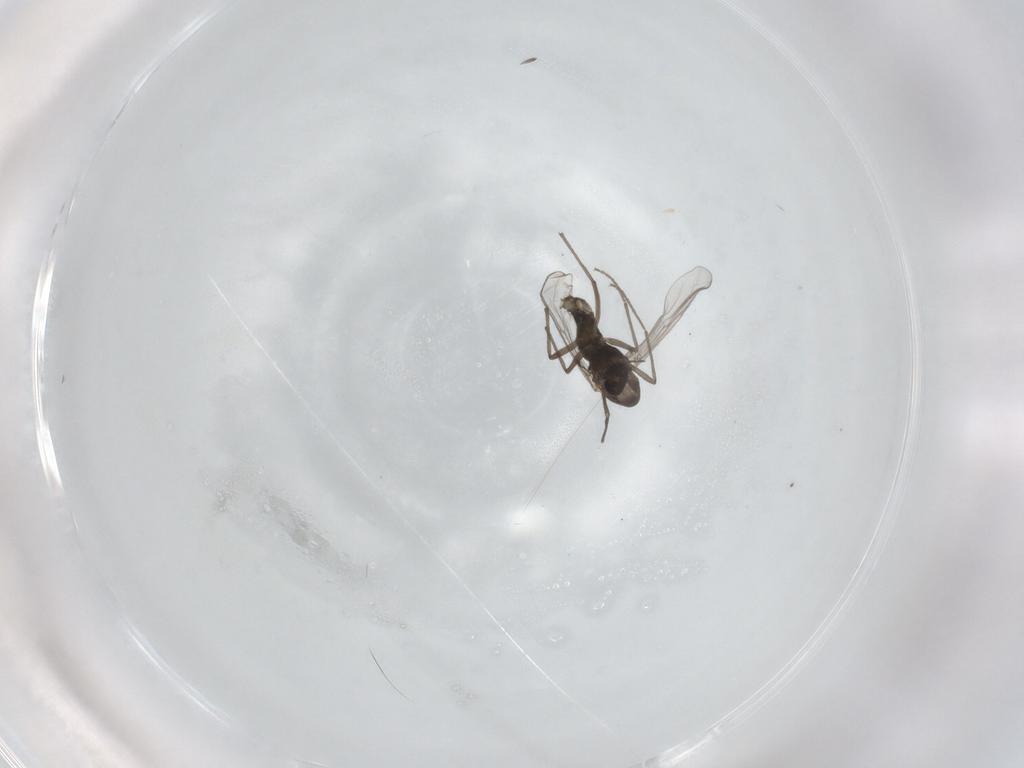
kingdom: Animalia
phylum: Arthropoda
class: Insecta
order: Diptera
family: Chironomidae
